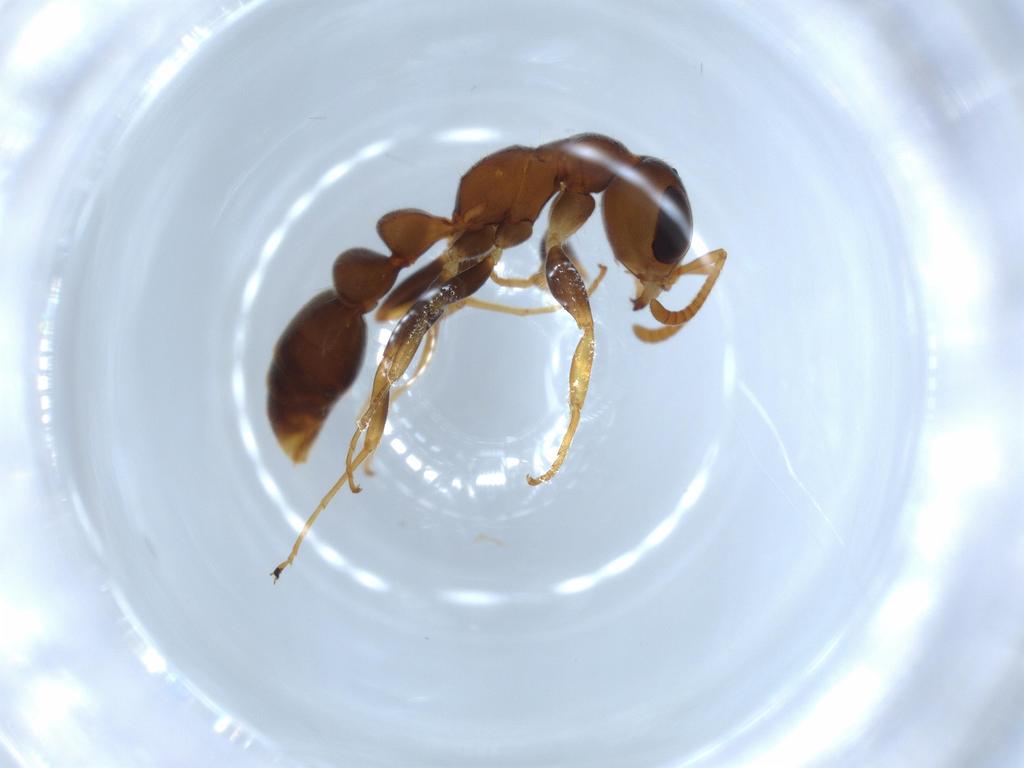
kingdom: Animalia
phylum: Arthropoda
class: Insecta
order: Hymenoptera
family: Formicidae
